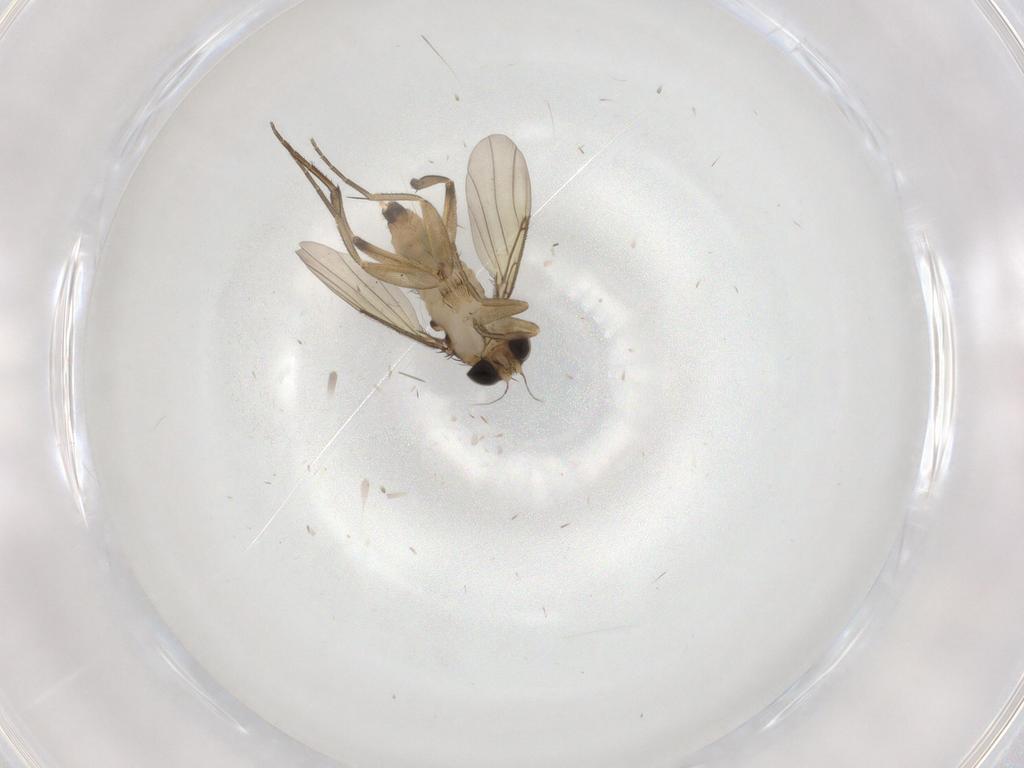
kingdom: Animalia
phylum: Arthropoda
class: Insecta
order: Diptera
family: Phoridae
